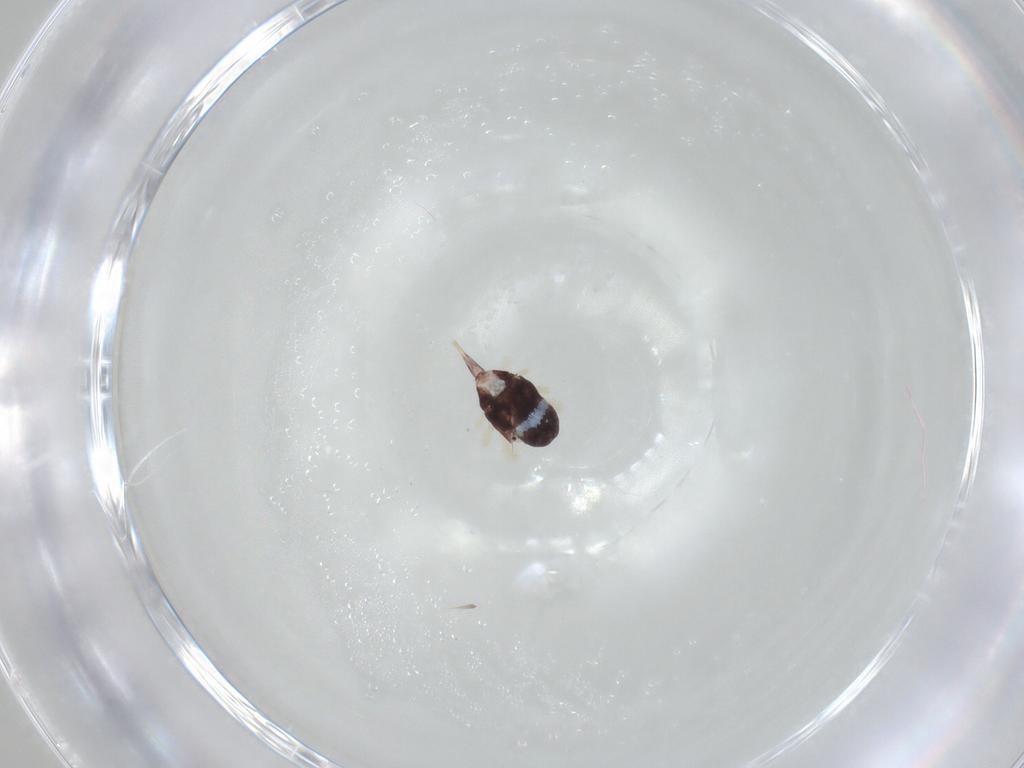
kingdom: Animalia
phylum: Arthropoda
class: Arachnida
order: Trombidiformes
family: Bdellidae
